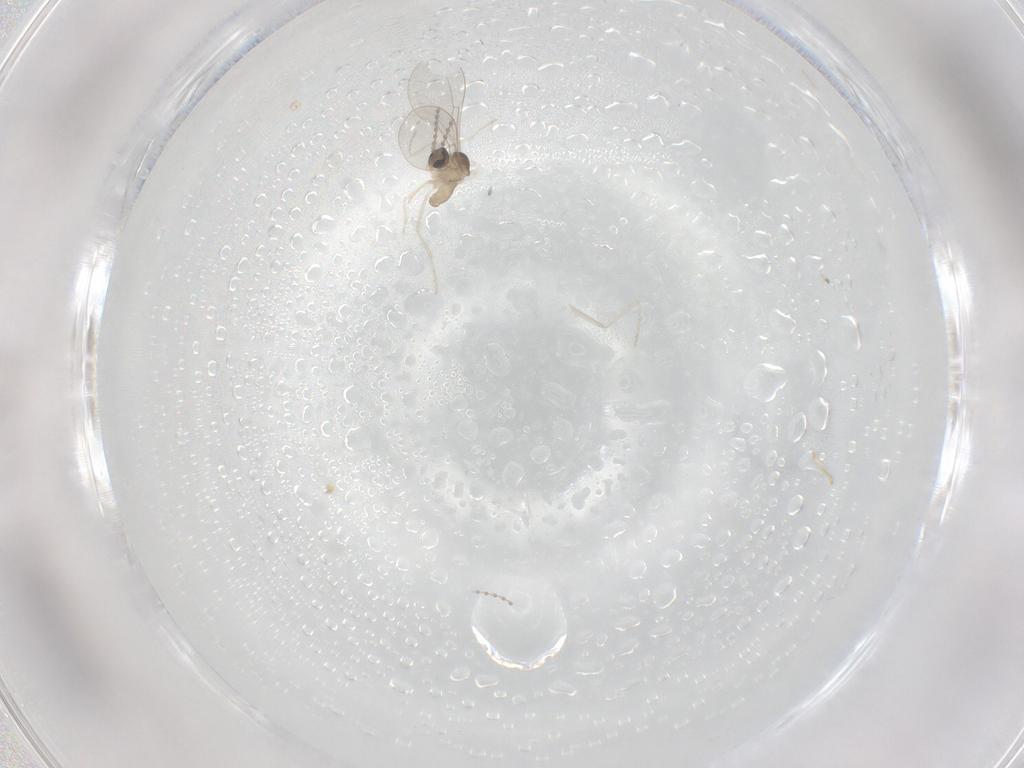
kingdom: Animalia
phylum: Arthropoda
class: Insecta
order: Diptera
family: Cecidomyiidae
